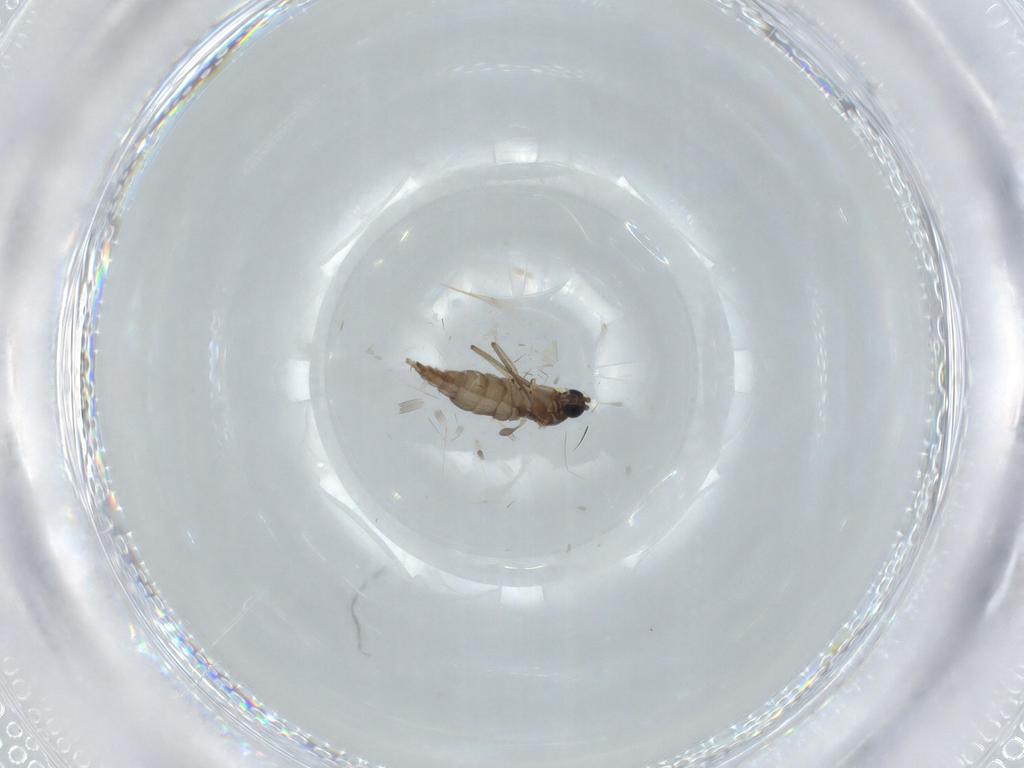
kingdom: Animalia
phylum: Arthropoda
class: Insecta
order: Diptera
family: Sciaridae
